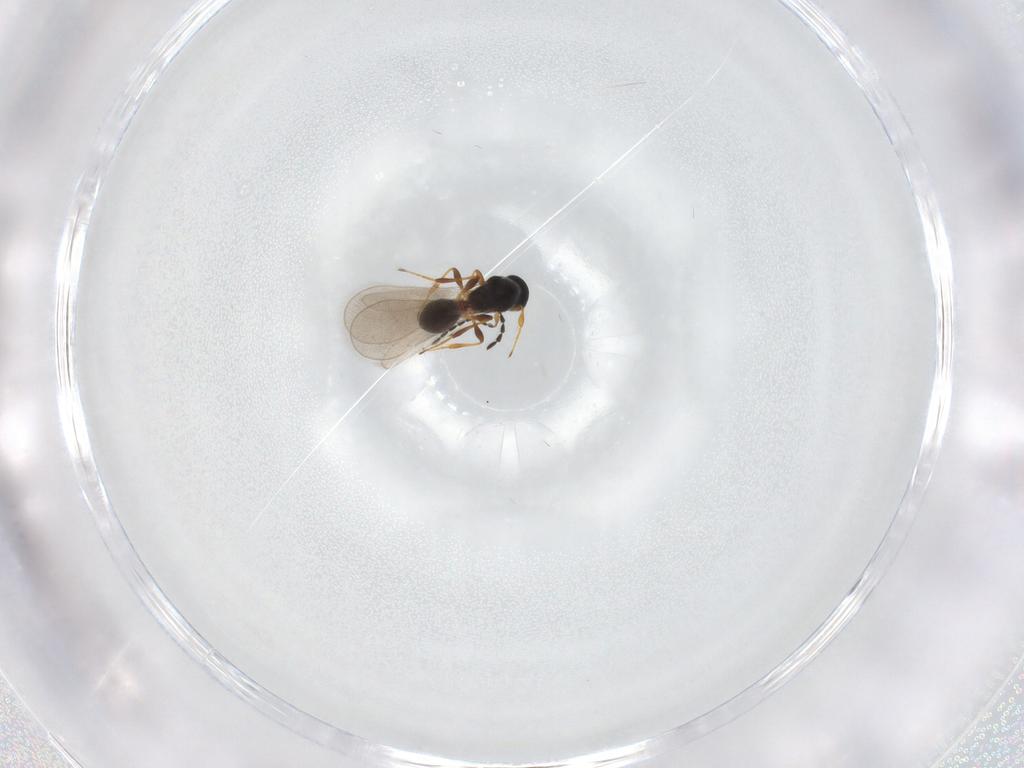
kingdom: Animalia
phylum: Arthropoda
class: Insecta
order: Hymenoptera
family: Platygastridae
